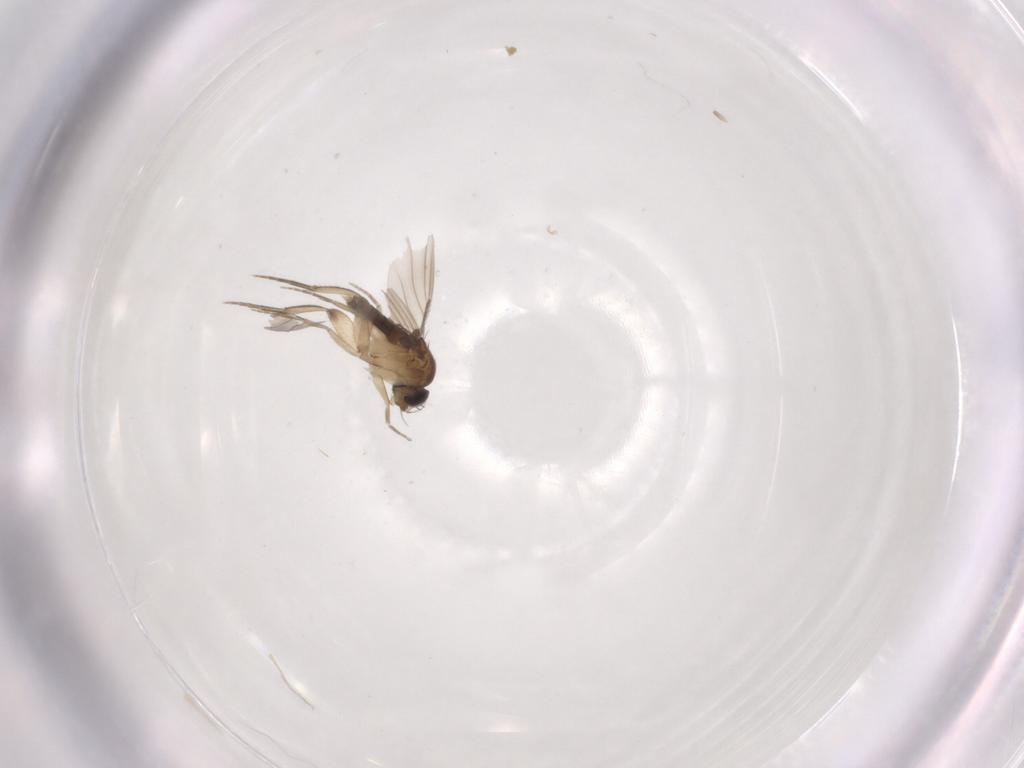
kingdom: Animalia
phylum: Arthropoda
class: Insecta
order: Diptera
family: Phoridae
